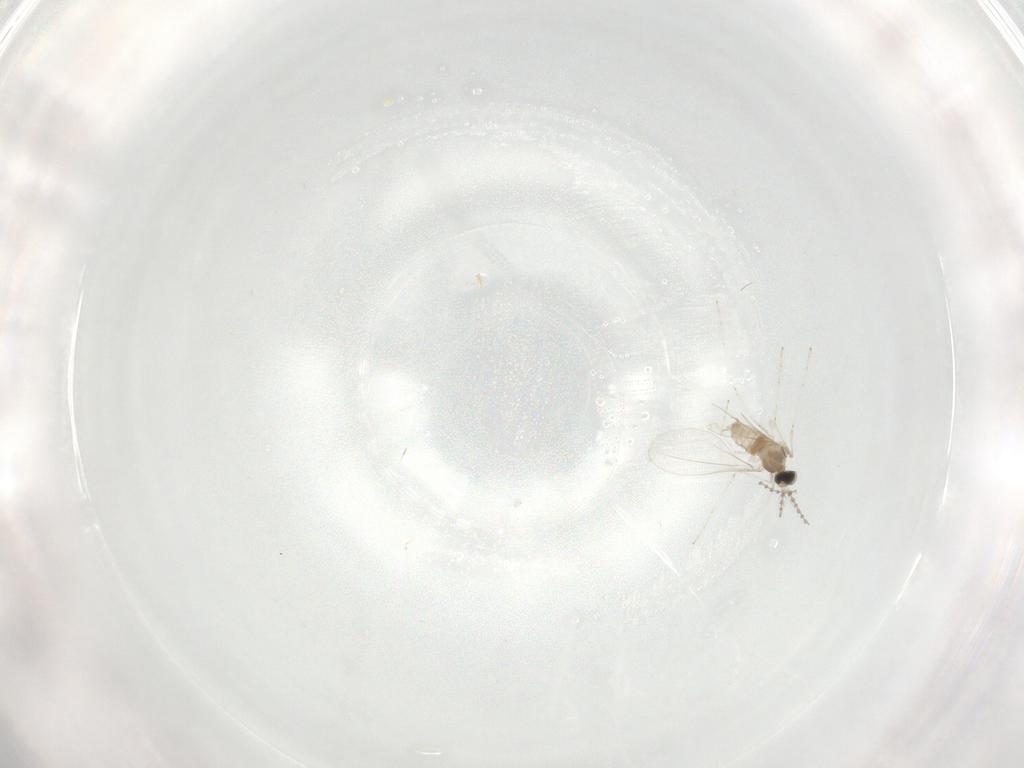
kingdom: Animalia
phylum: Arthropoda
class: Insecta
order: Diptera
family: Cecidomyiidae
